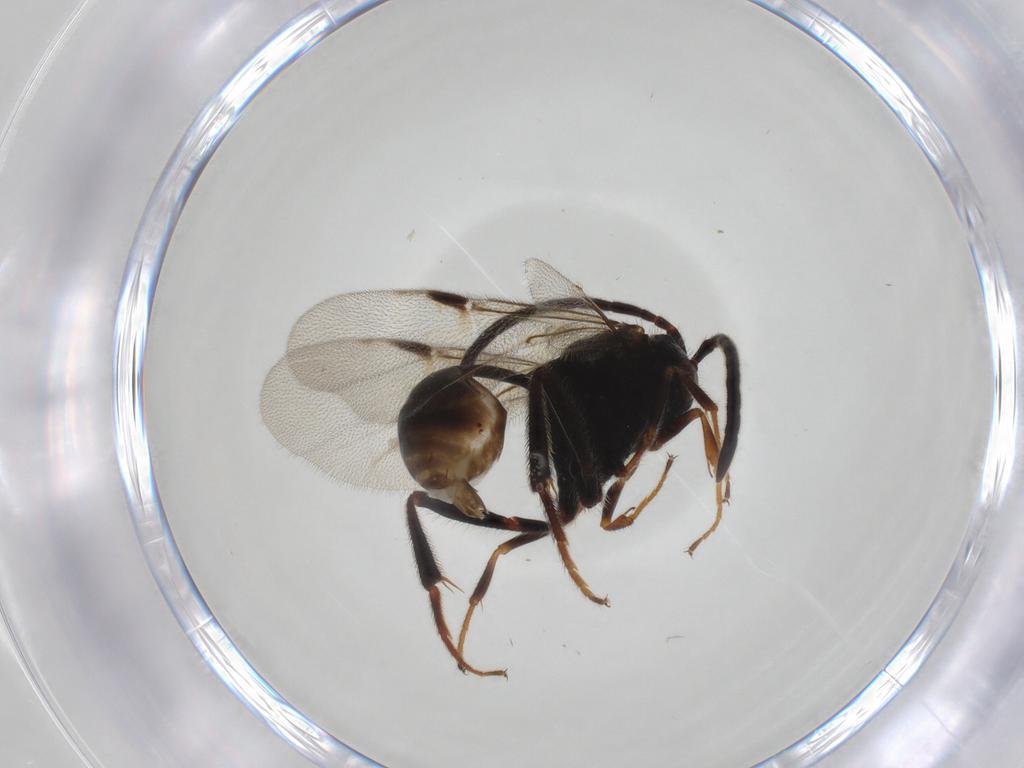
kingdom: Animalia
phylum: Arthropoda
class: Insecta
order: Hymenoptera
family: Evaniidae
